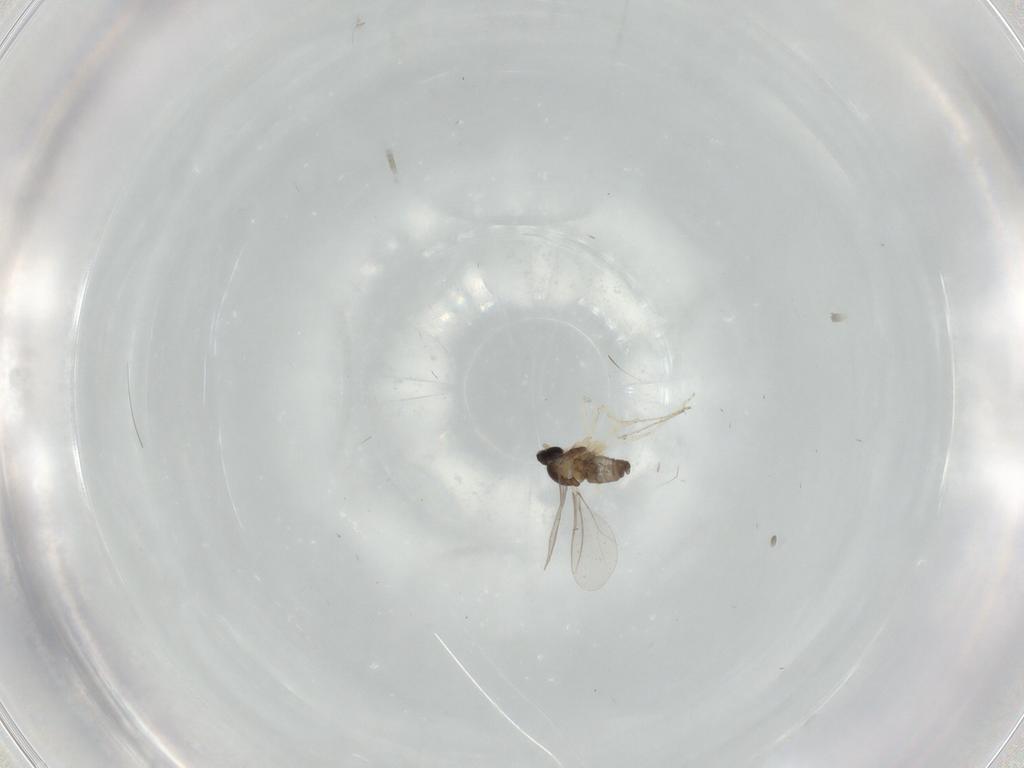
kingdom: Animalia
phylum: Arthropoda
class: Insecta
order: Diptera
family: Cecidomyiidae
